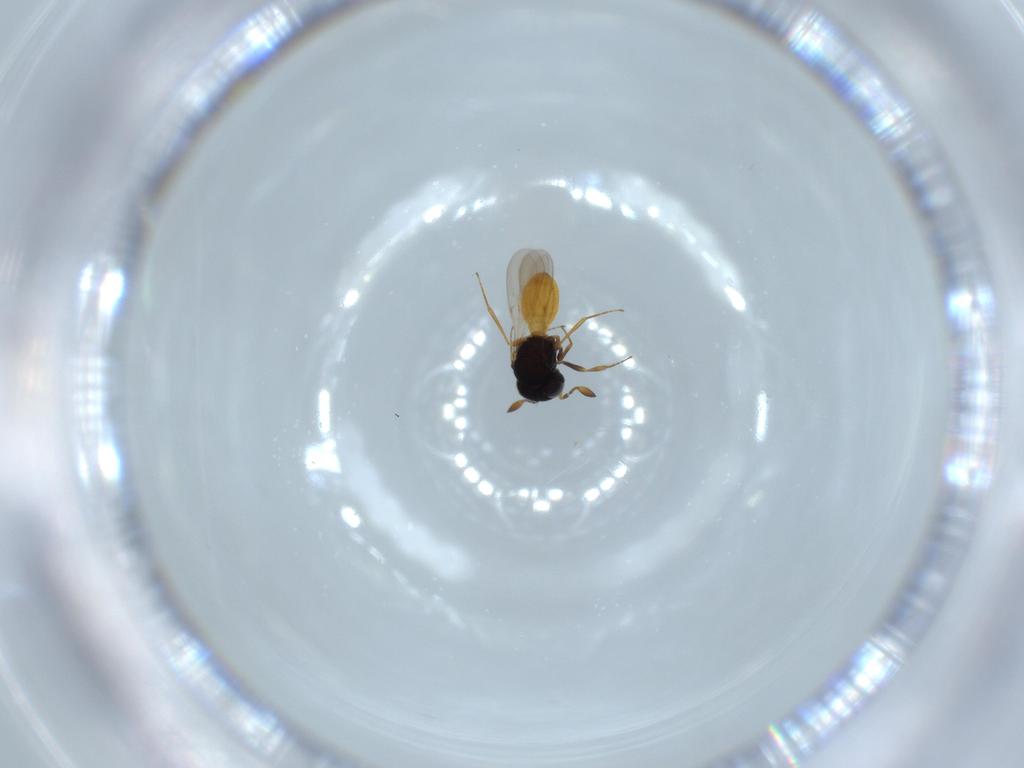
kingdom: Animalia
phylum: Arthropoda
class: Insecta
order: Hymenoptera
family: Scelionidae
